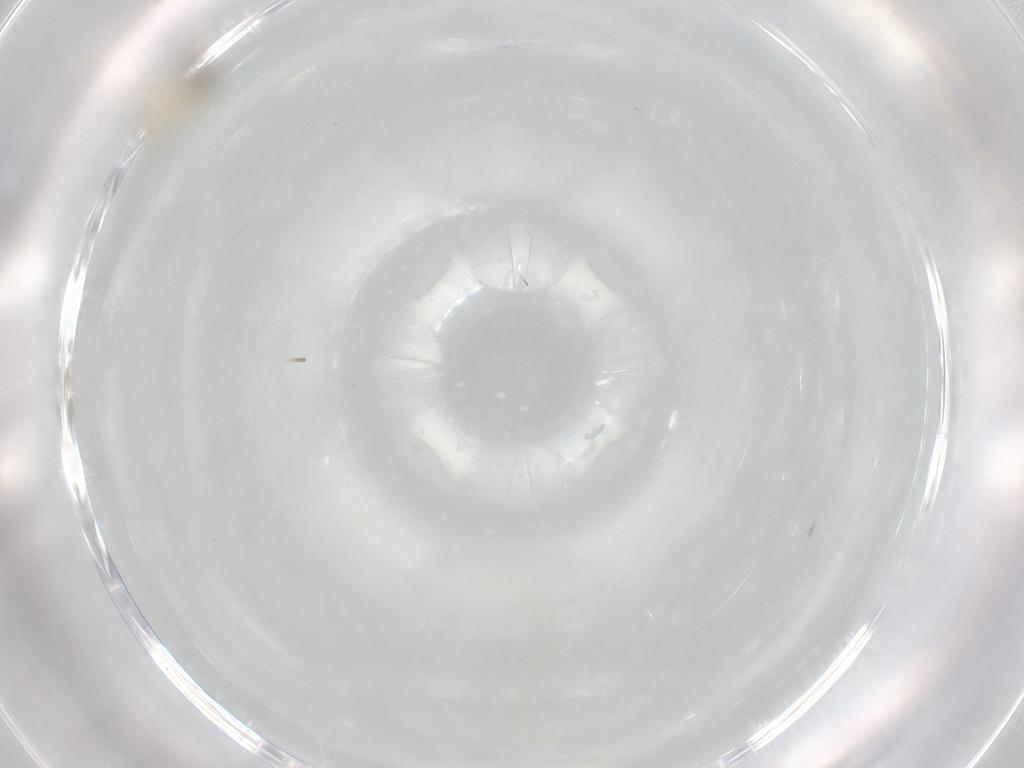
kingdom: Animalia
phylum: Arthropoda
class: Insecta
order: Diptera
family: Cecidomyiidae
